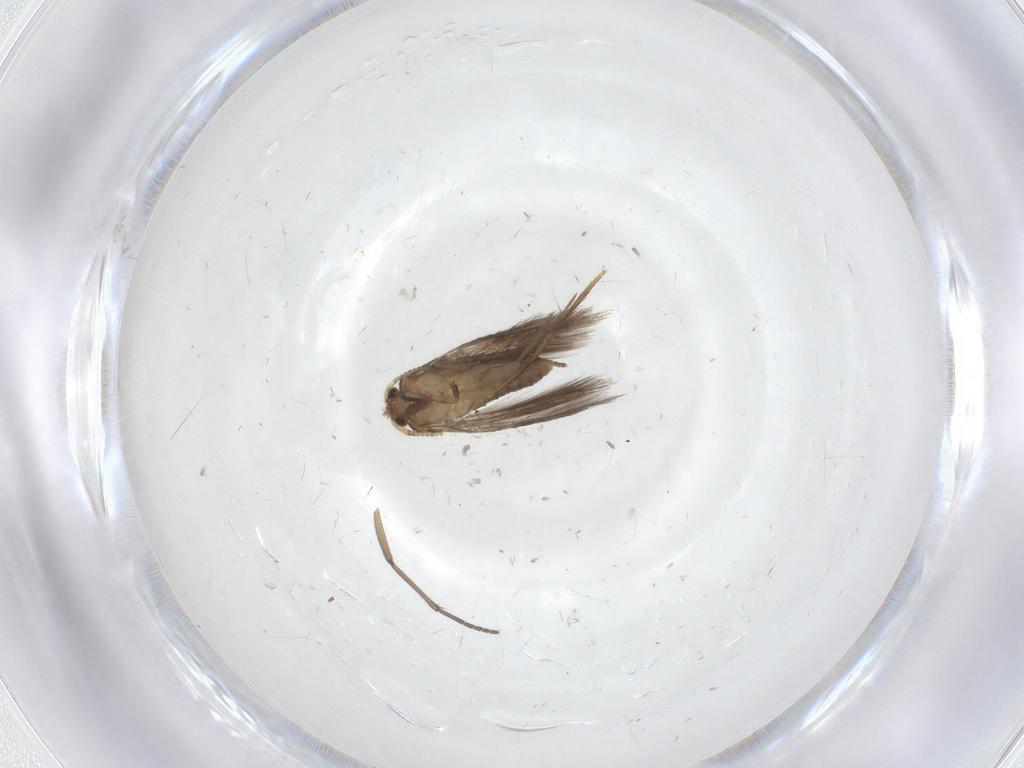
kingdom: Animalia
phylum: Arthropoda
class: Insecta
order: Lepidoptera
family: Nepticulidae
